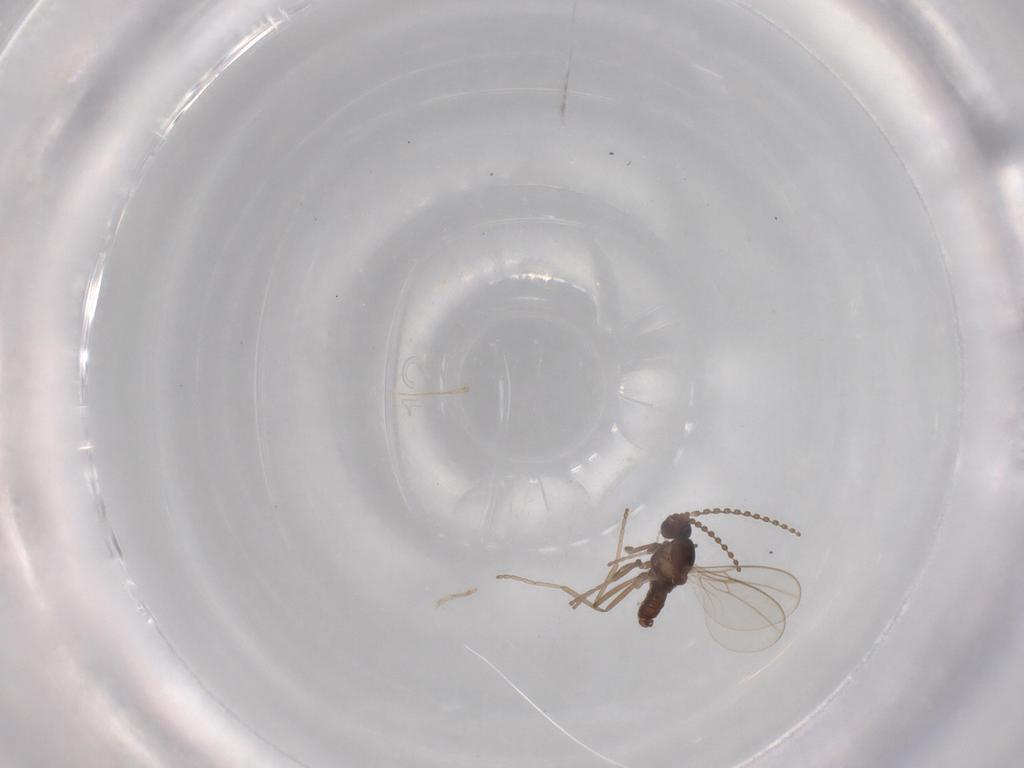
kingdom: Animalia
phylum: Arthropoda
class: Insecta
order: Diptera
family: Cecidomyiidae
